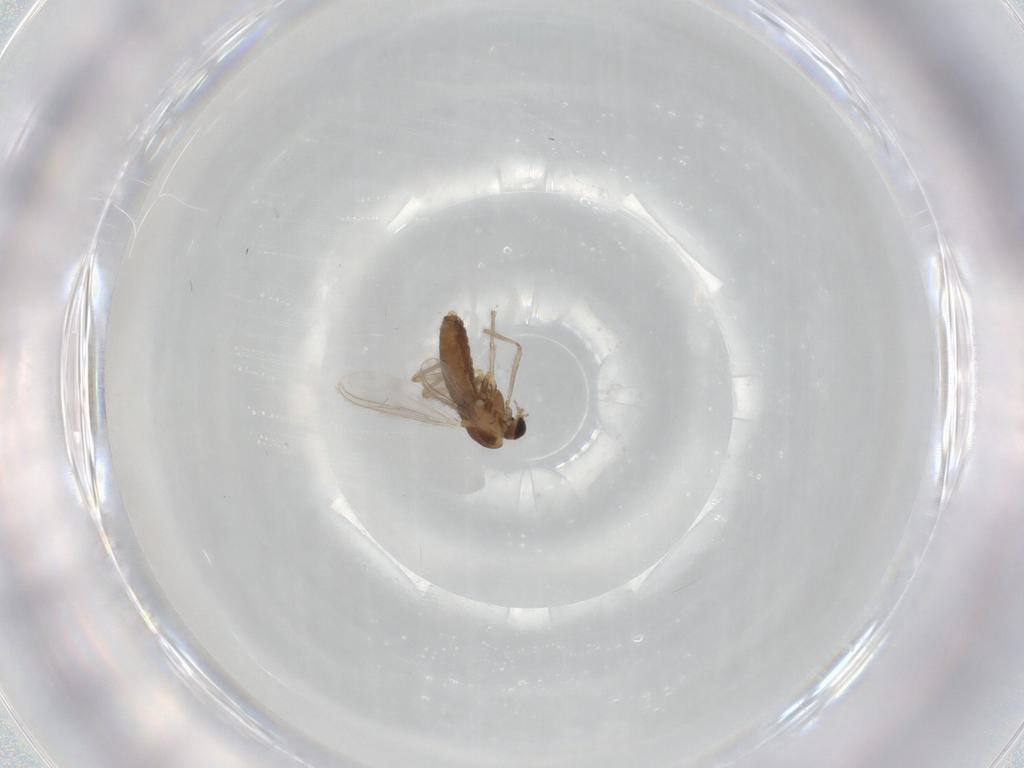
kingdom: Animalia
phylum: Arthropoda
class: Insecta
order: Diptera
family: Chironomidae
